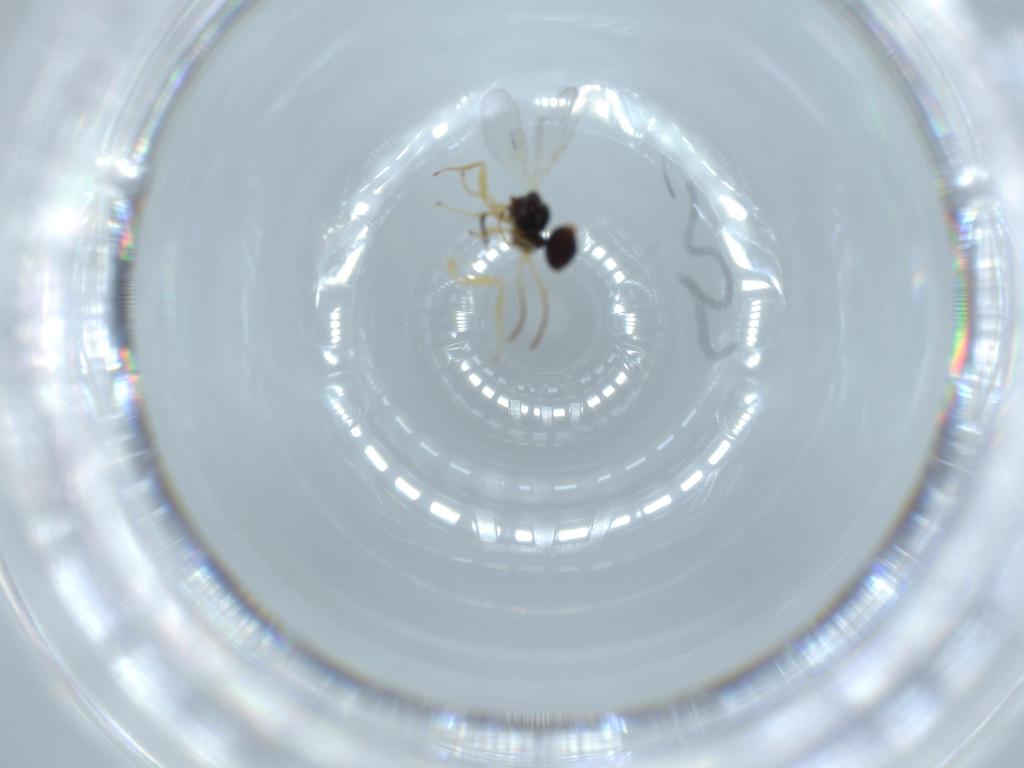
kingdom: Animalia
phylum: Arthropoda
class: Insecta
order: Hymenoptera
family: Figitidae
